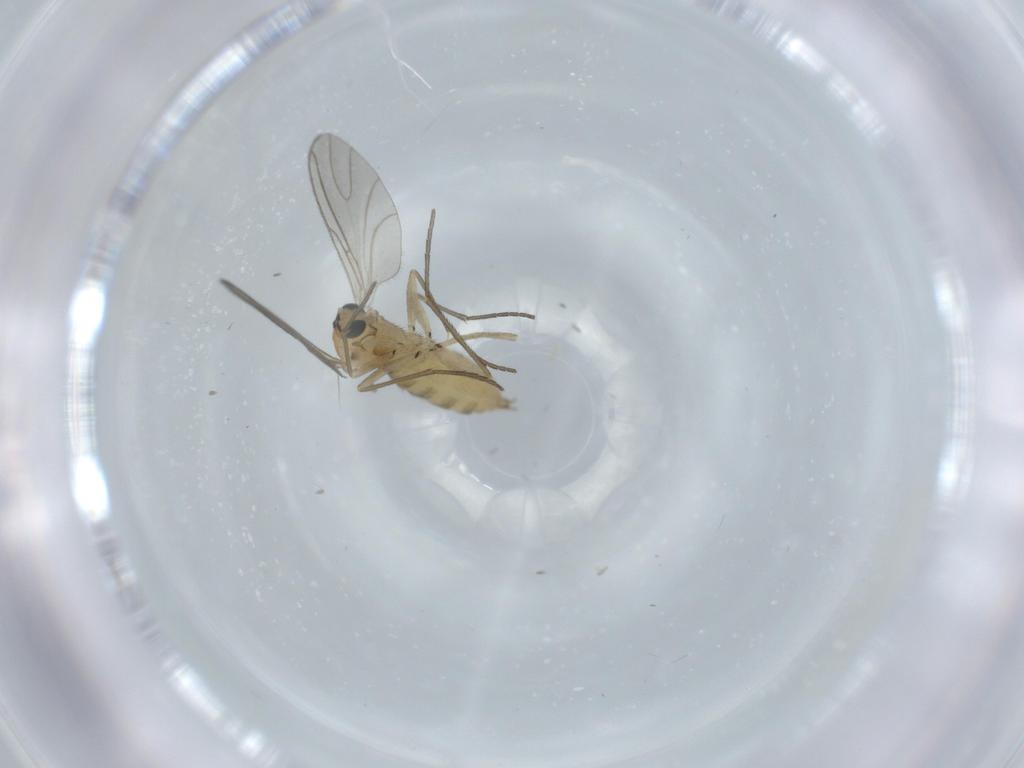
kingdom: Animalia
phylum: Arthropoda
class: Insecta
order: Diptera
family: Sciaridae
